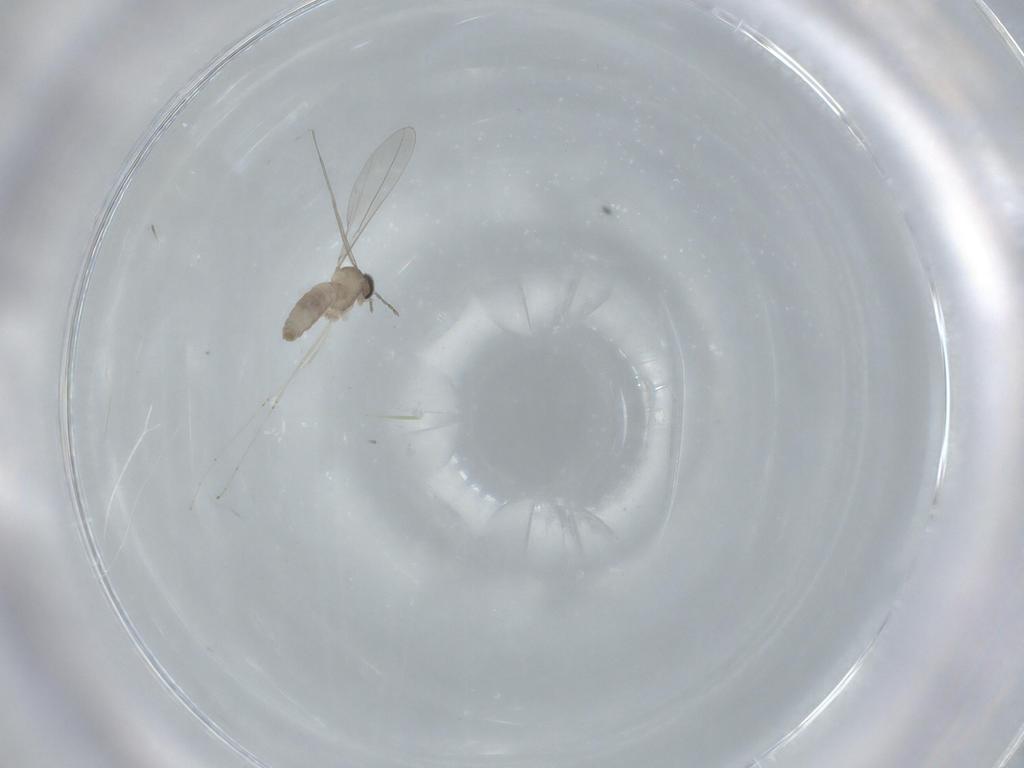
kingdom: Animalia
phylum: Arthropoda
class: Insecta
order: Diptera
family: Cecidomyiidae
